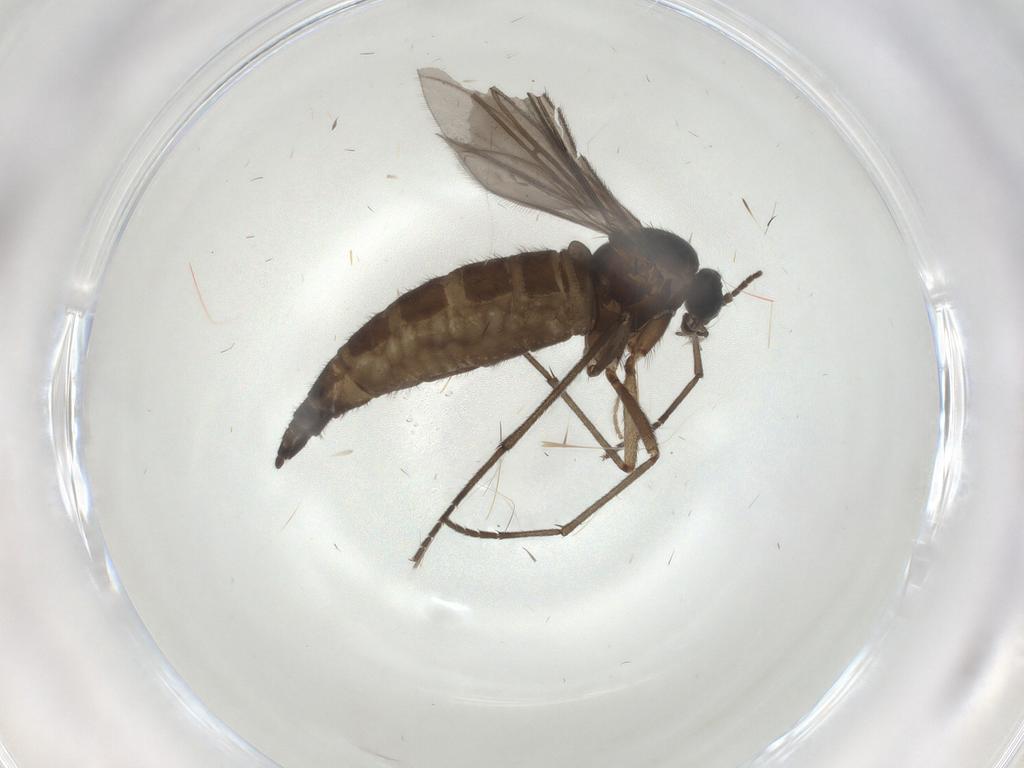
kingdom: Animalia
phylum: Arthropoda
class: Insecta
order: Diptera
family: Sciaridae
